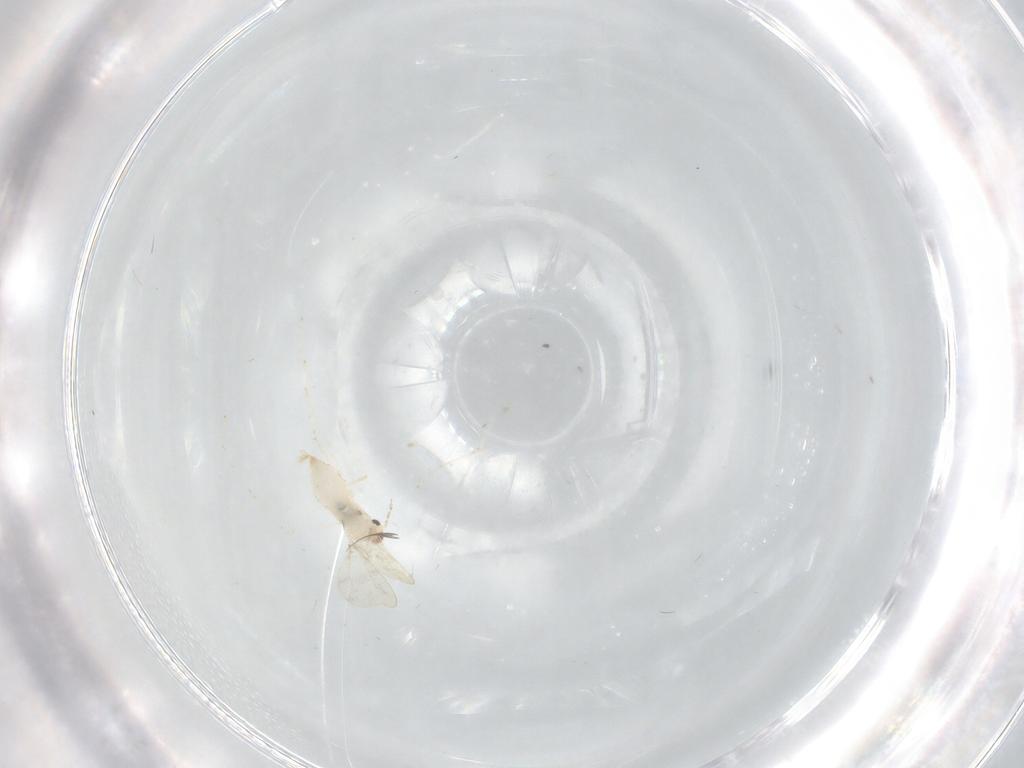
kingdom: Animalia
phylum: Arthropoda
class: Insecta
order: Diptera
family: Cecidomyiidae
